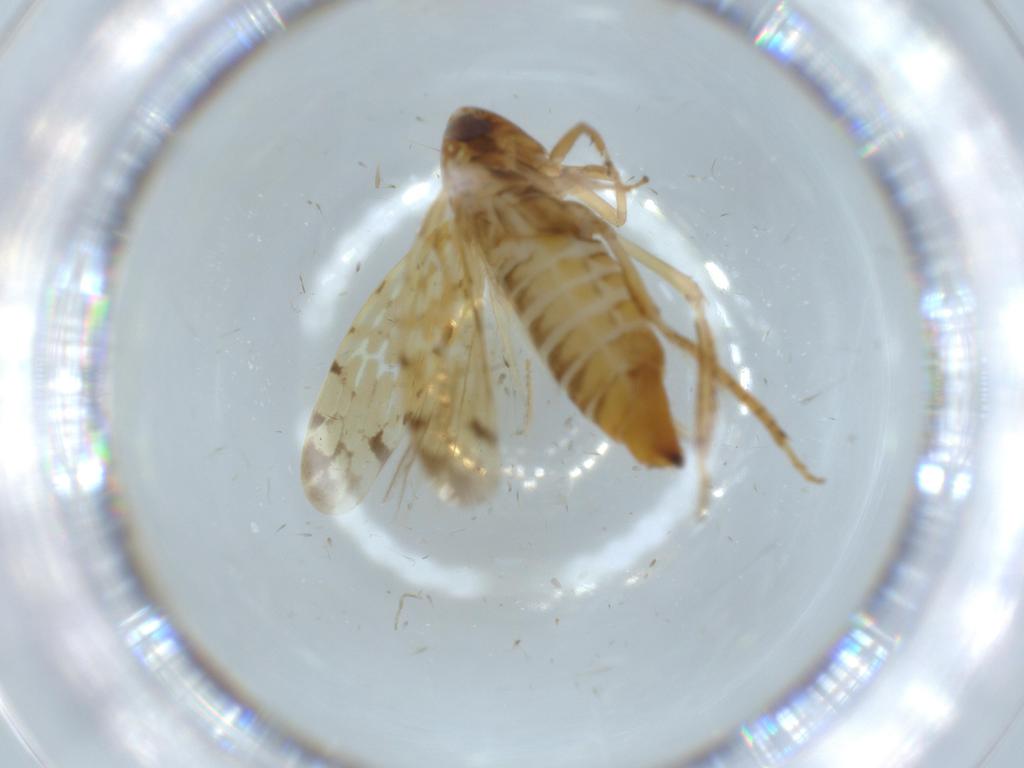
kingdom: Animalia
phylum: Arthropoda
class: Insecta
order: Hemiptera
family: Cicadellidae
